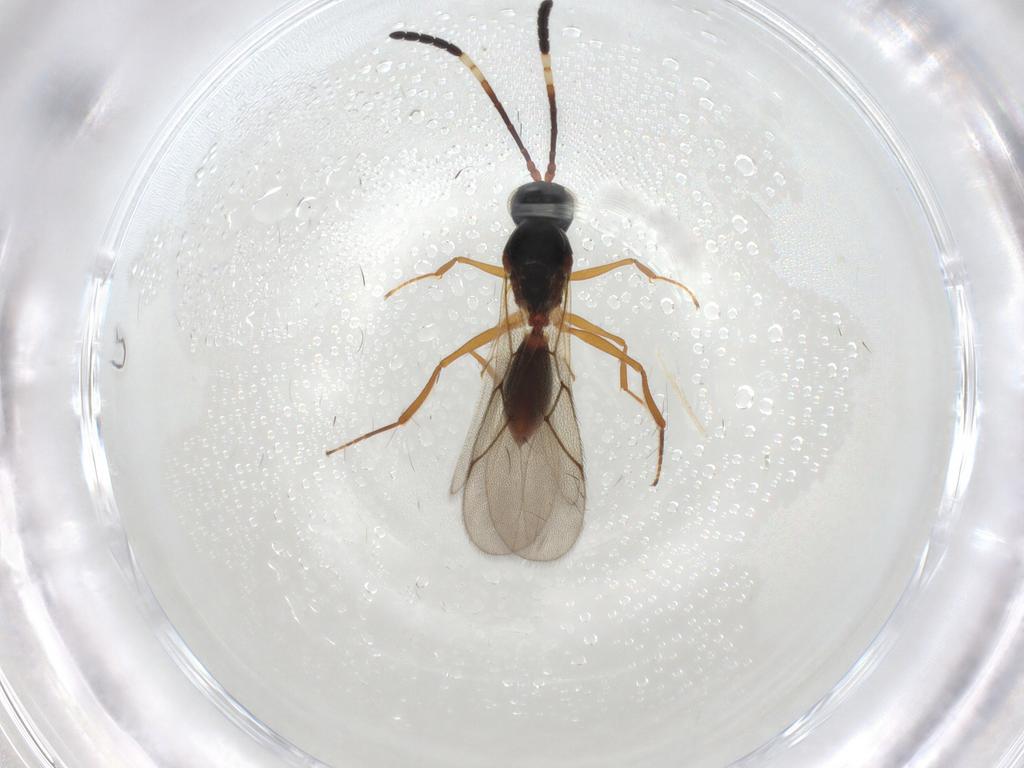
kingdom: Animalia
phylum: Arthropoda
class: Insecta
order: Hymenoptera
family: Figitidae
